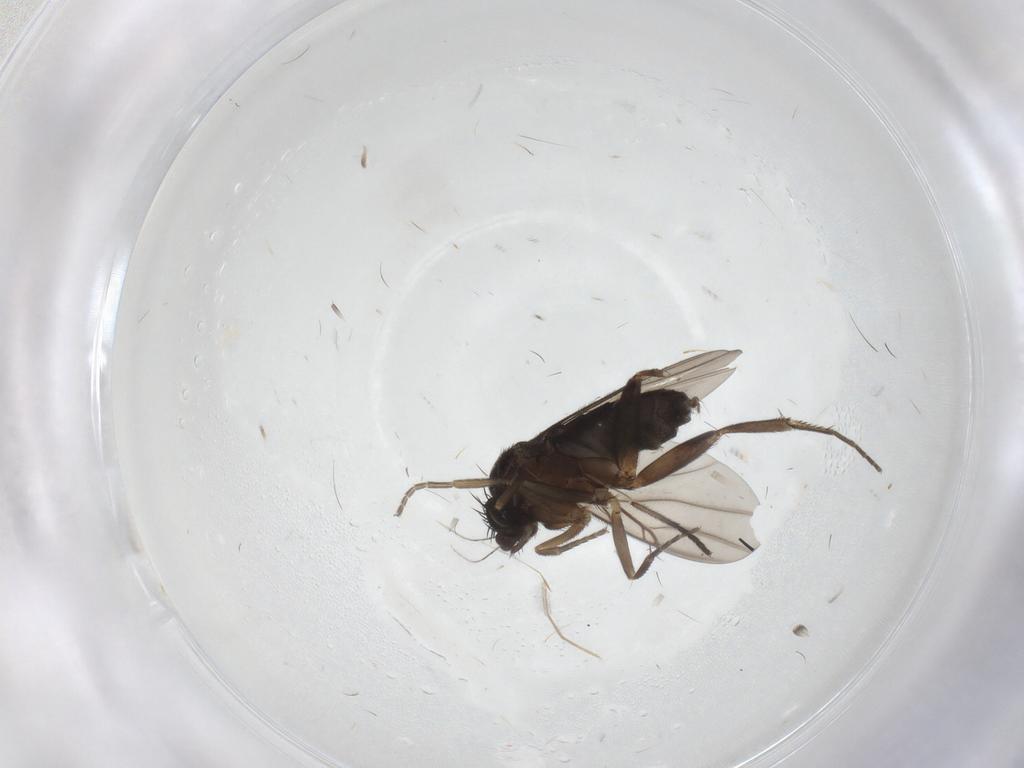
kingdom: Animalia
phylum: Arthropoda
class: Insecta
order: Diptera
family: Phoridae
